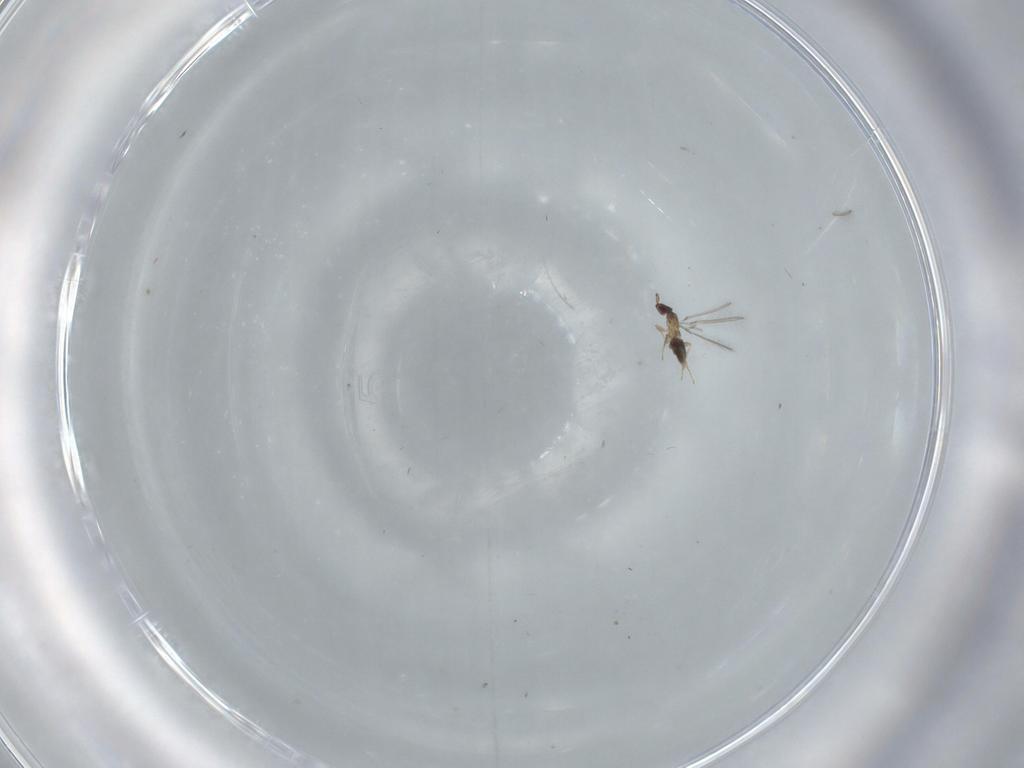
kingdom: Animalia
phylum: Arthropoda
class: Insecta
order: Hymenoptera
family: Mymaridae
